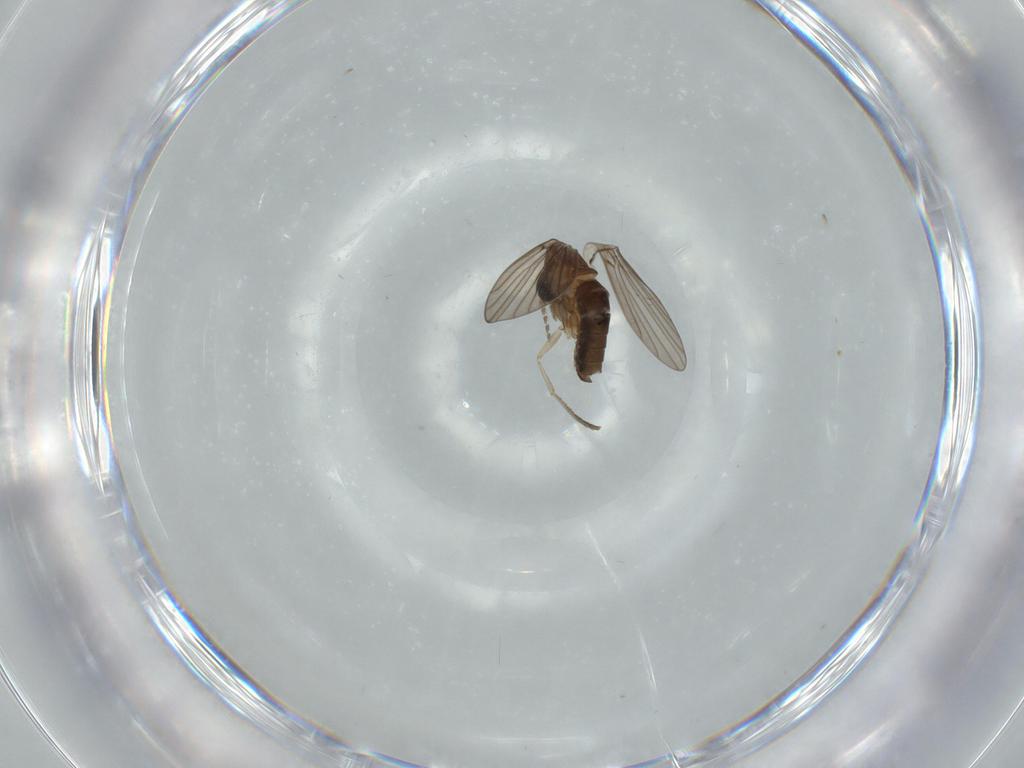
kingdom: Animalia
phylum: Arthropoda
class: Insecta
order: Diptera
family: Psychodidae
